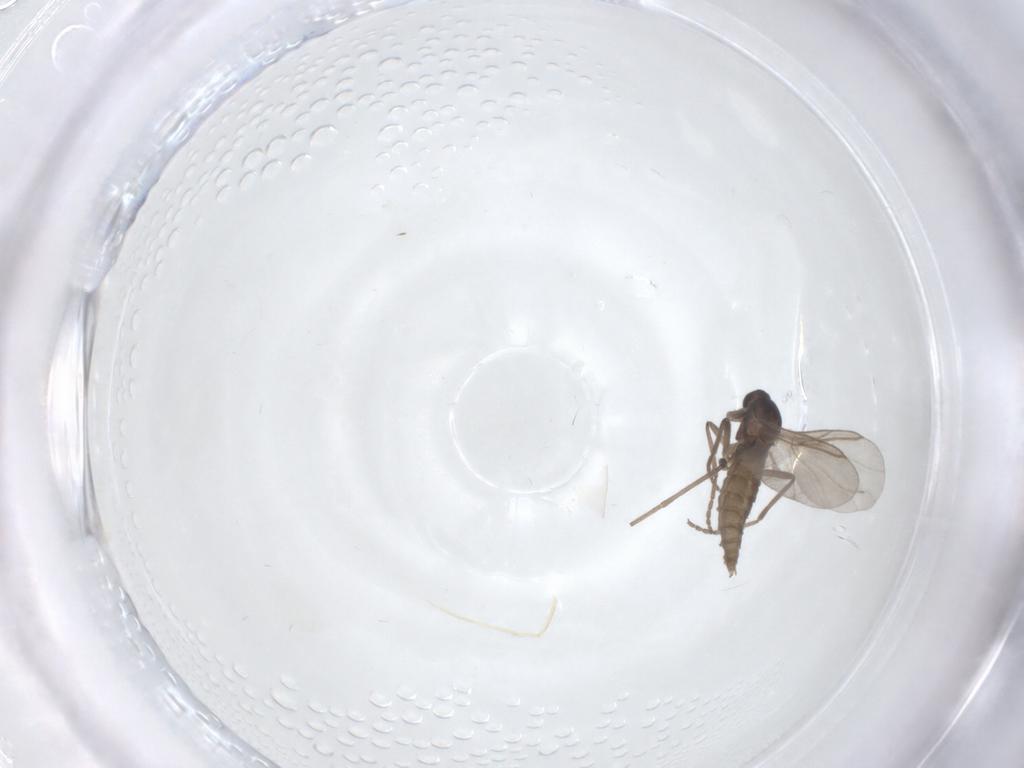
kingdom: Animalia
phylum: Arthropoda
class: Insecta
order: Diptera
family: Cecidomyiidae
